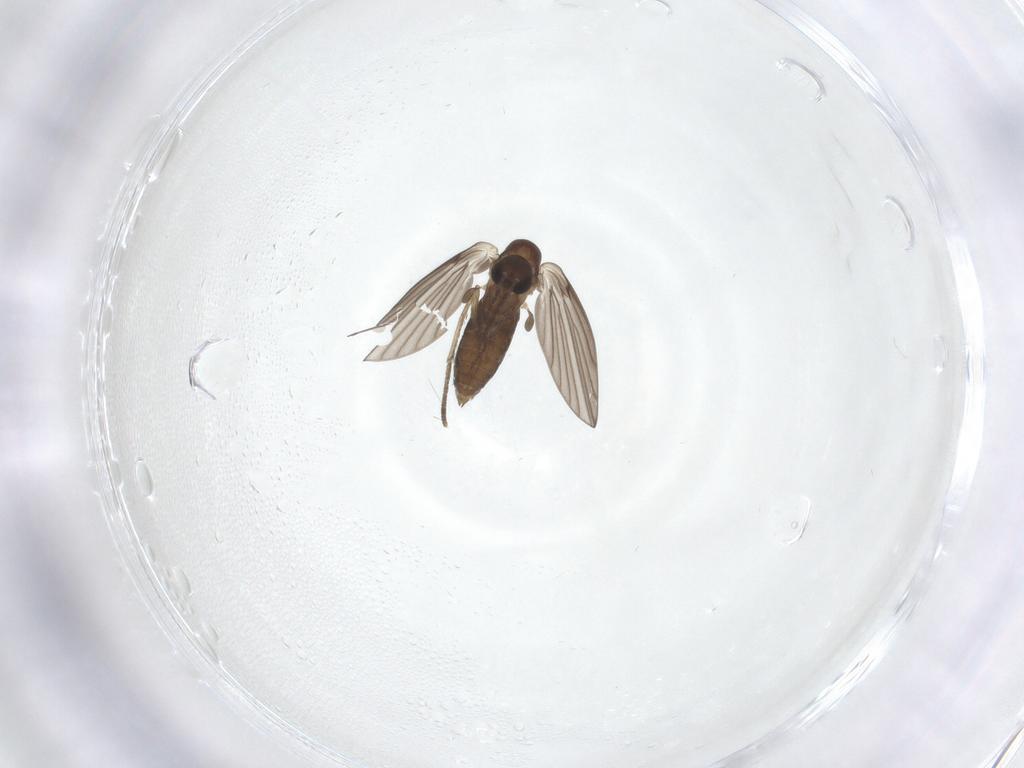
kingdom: Animalia
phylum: Arthropoda
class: Insecta
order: Diptera
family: Psychodidae
